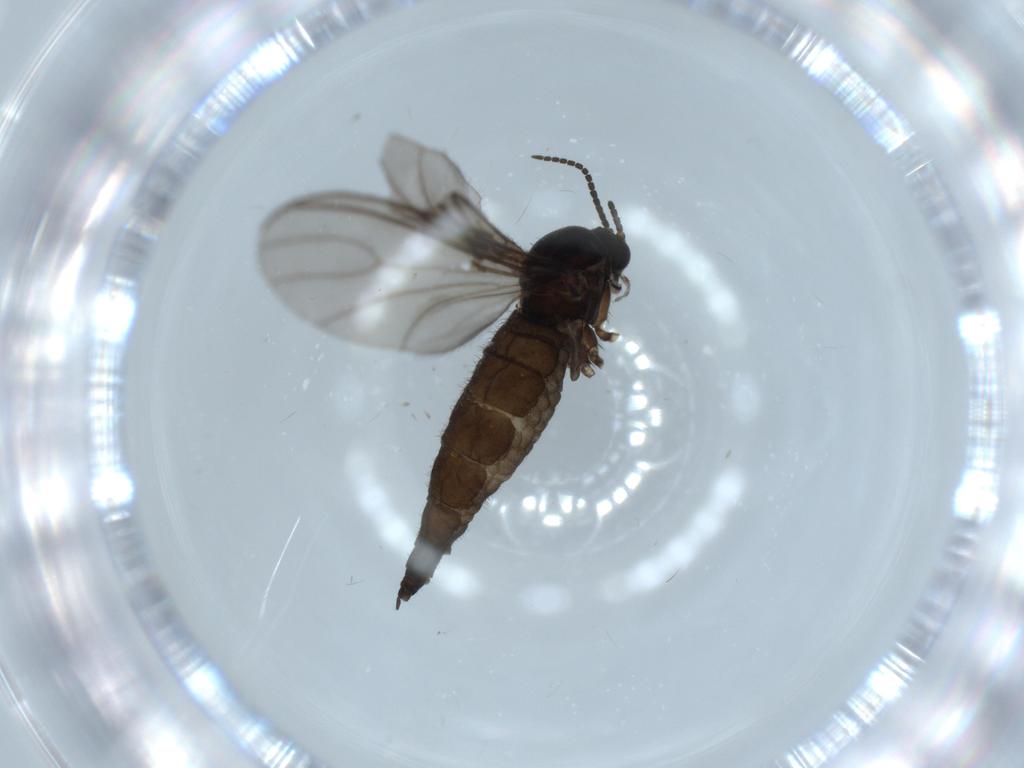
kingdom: Animalia
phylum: Arthropoda
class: Insecta
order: Diptera
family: Sciaridae
